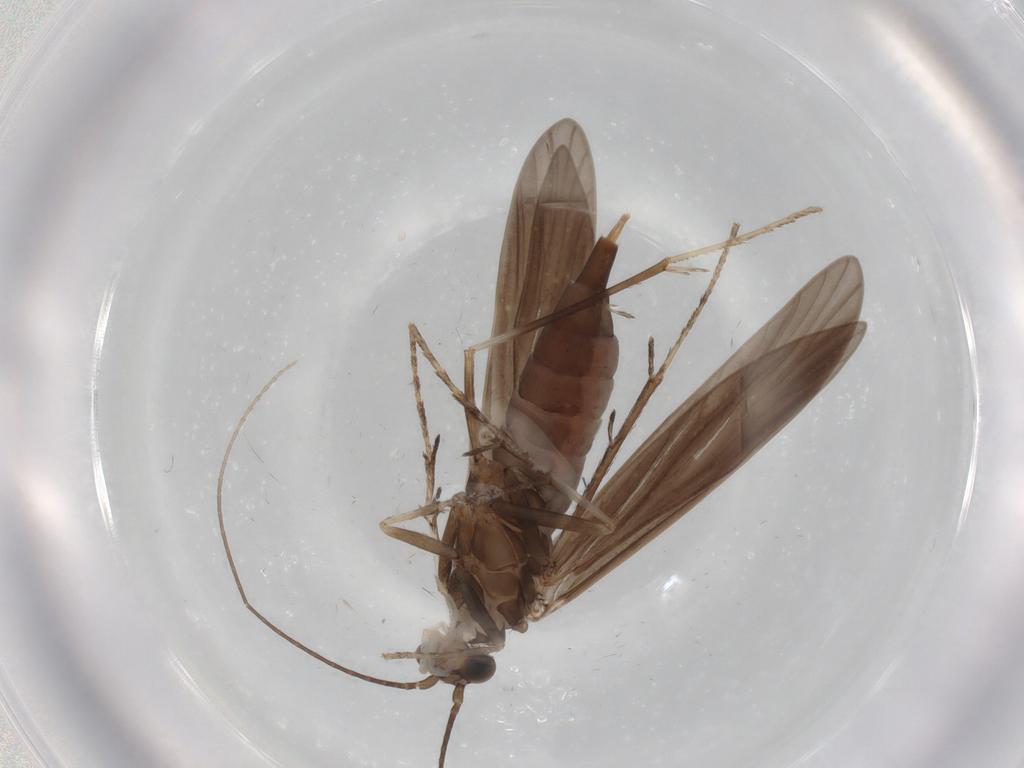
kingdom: Animalia
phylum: Arthropoda
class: Insecta
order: Trichoptera
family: Xiphocentronidae
